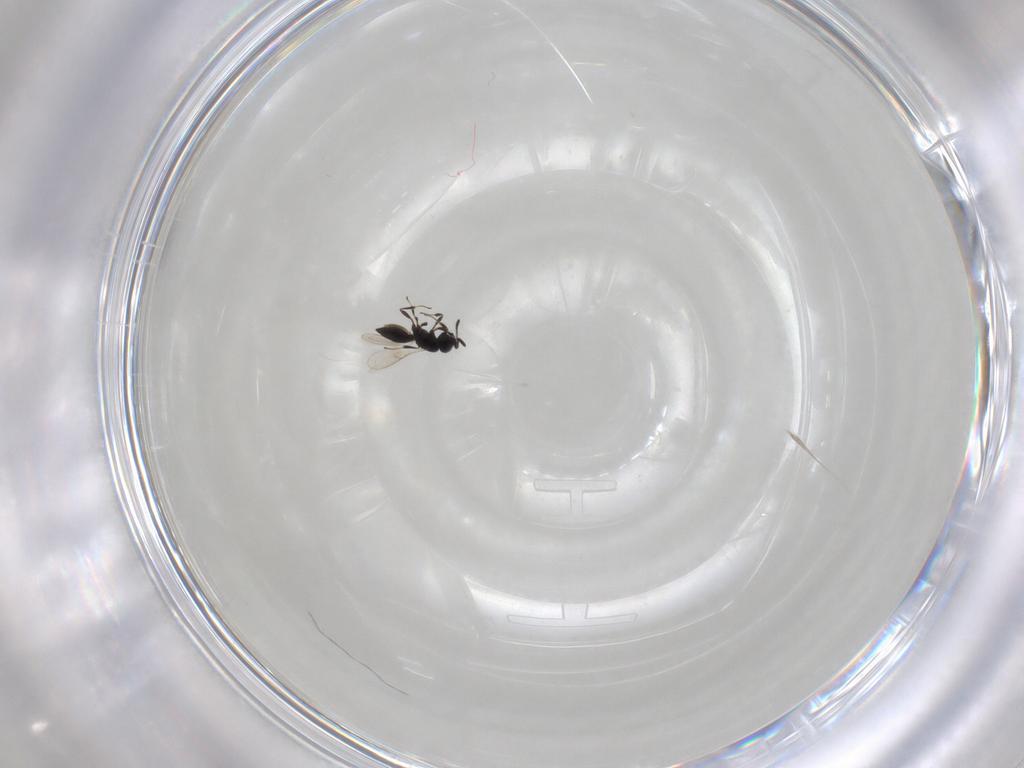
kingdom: Animalia
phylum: Arthropoda
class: Insecta
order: Hymenoptera
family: Scelionidae
